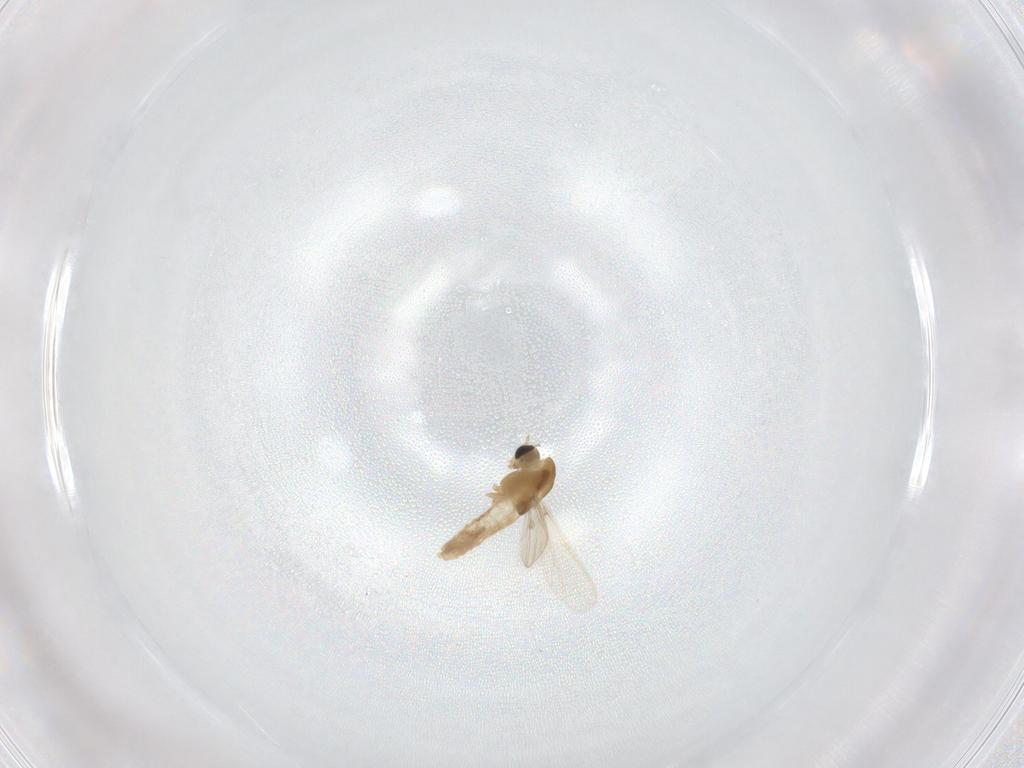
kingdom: Animalia
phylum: Arthropoda
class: Insecta
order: Diptera
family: Chironomidae
